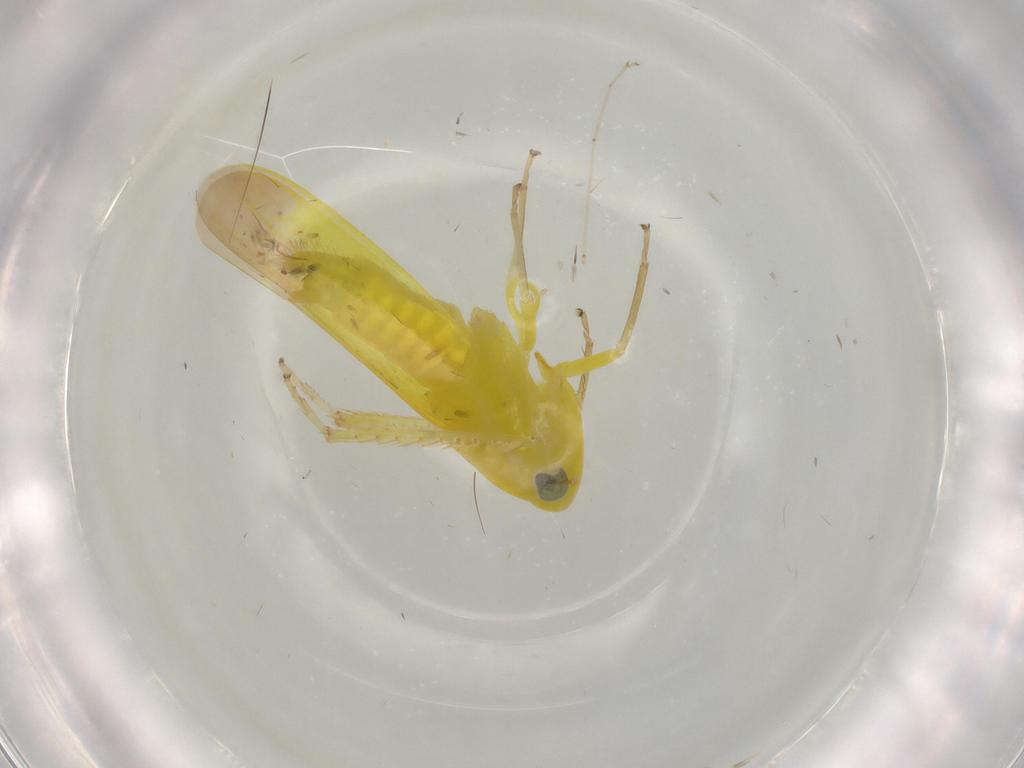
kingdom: Animalia
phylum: Arthropoda
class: Insecta
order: Hemiptera
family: Cicadellidae
